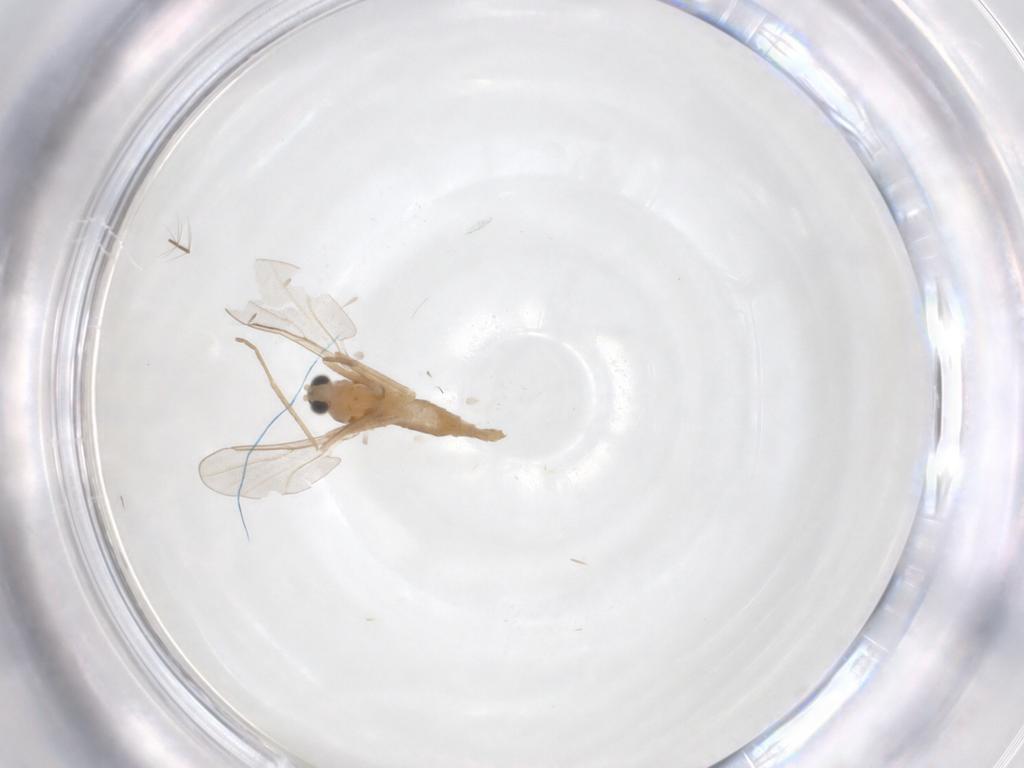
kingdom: Animalia
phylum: Arthropoda
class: Insecta
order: Diptera
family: Cecidomyiidae
